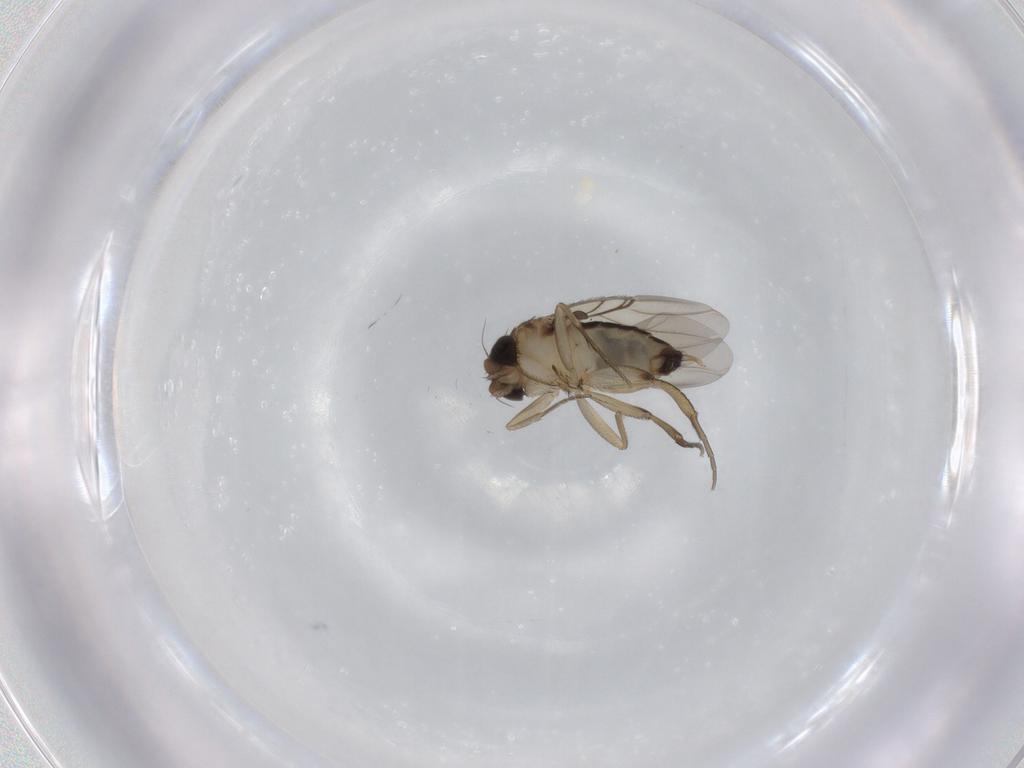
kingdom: Animalia
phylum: Arthropoda
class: Insecta
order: Diptera
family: Phoridae
